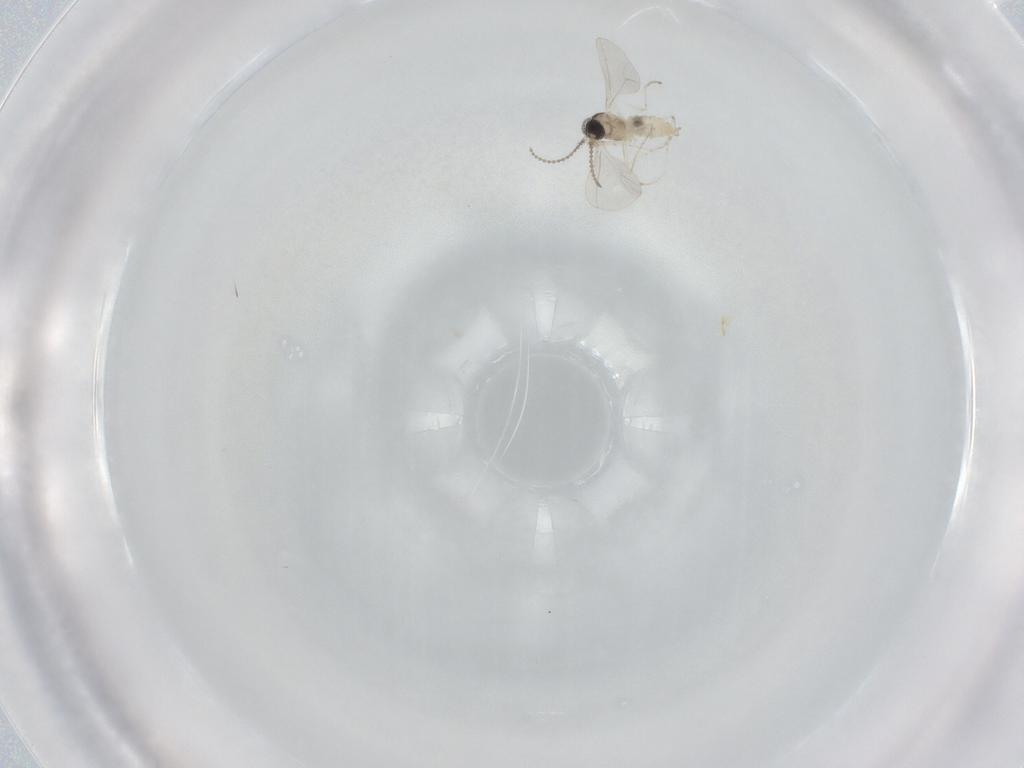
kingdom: Animalia
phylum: Arthropoda
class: Insecta
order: Diptera
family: Cecidomyiidae
